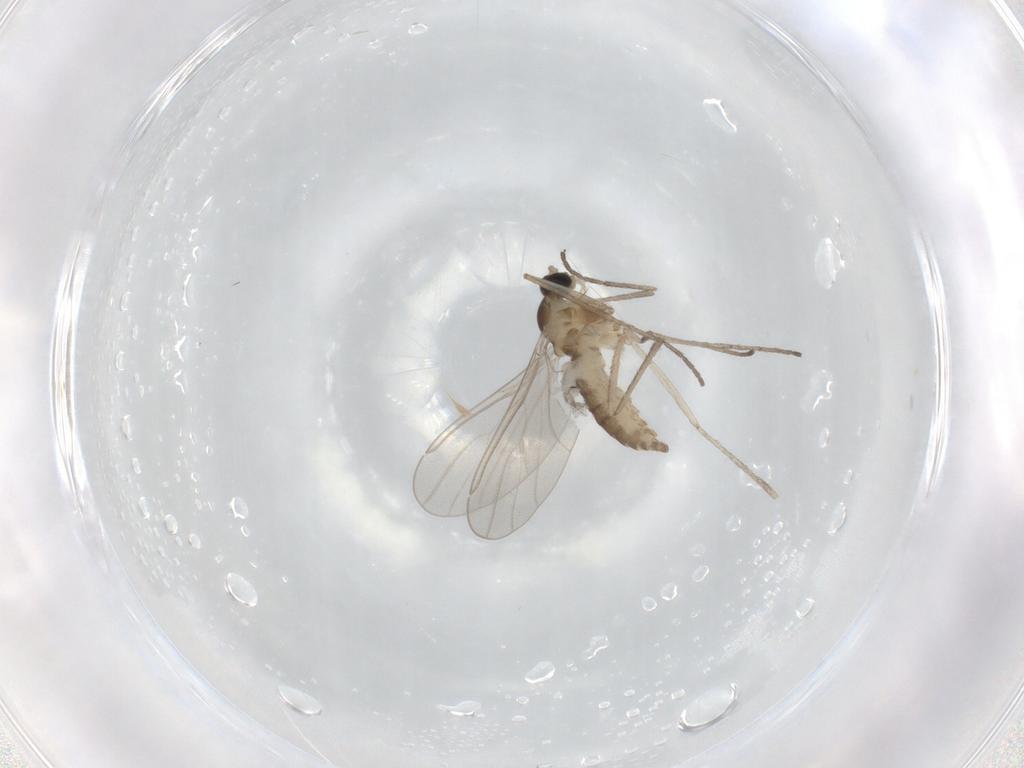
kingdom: Animalia
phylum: Arthropoda
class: Insecta
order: Diptera
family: Cecidomyiidae
